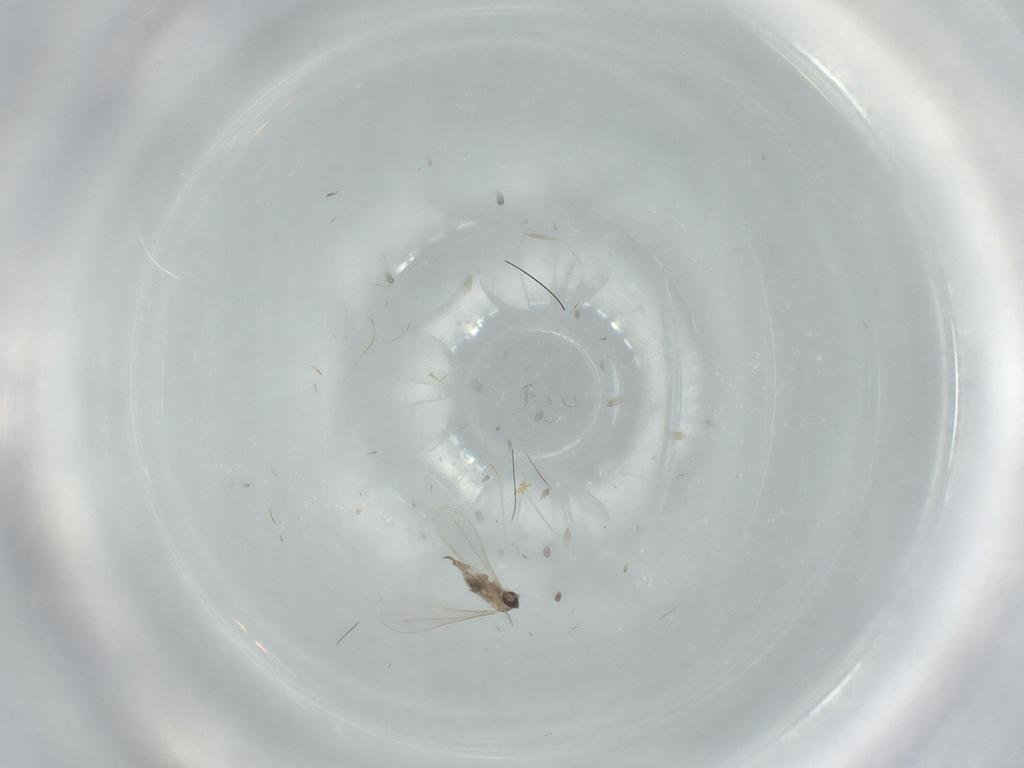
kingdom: Animalia
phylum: Arthropoda
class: Insecta
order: Diptera
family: Cecidomyiidae
